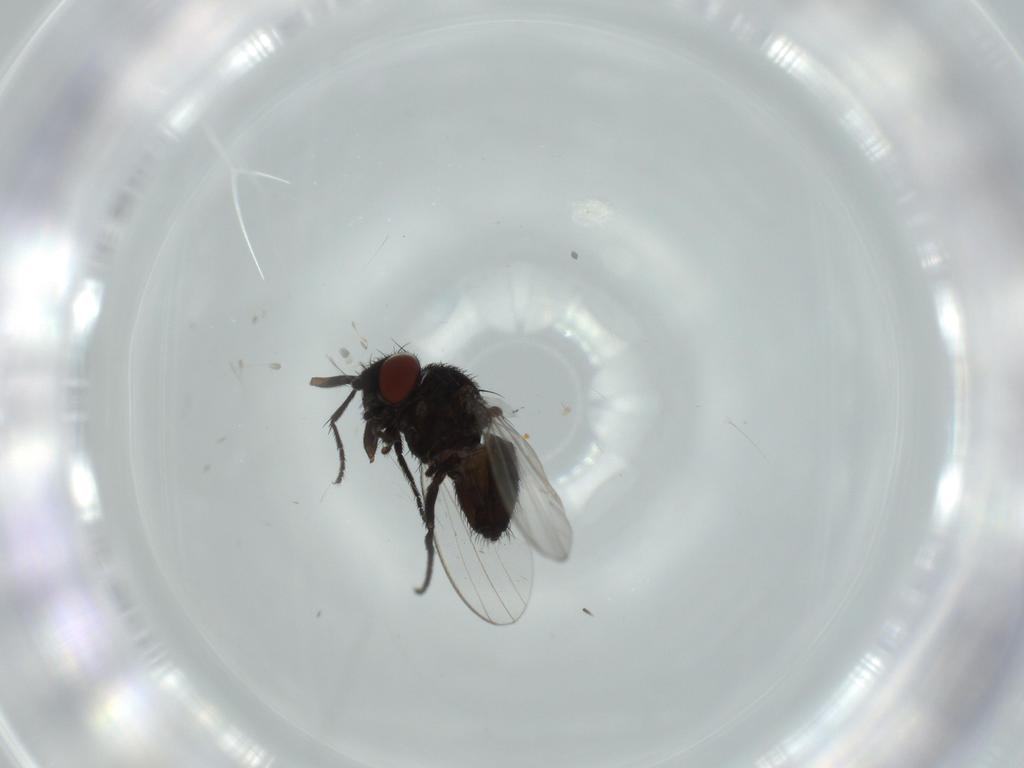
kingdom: Animalia
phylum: Arthropoda
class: Insecta
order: Diptera
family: Milichiidae
